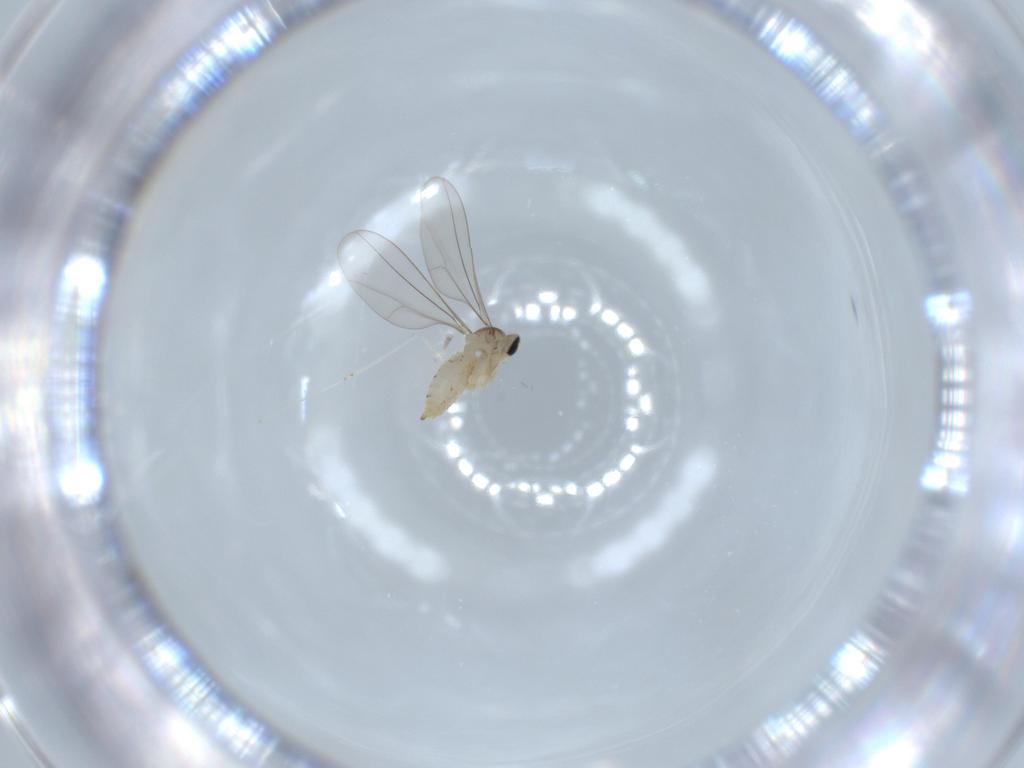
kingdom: Animalia
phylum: Arthropoda
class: Insecta
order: Diptera
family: Cecidomyiidae
